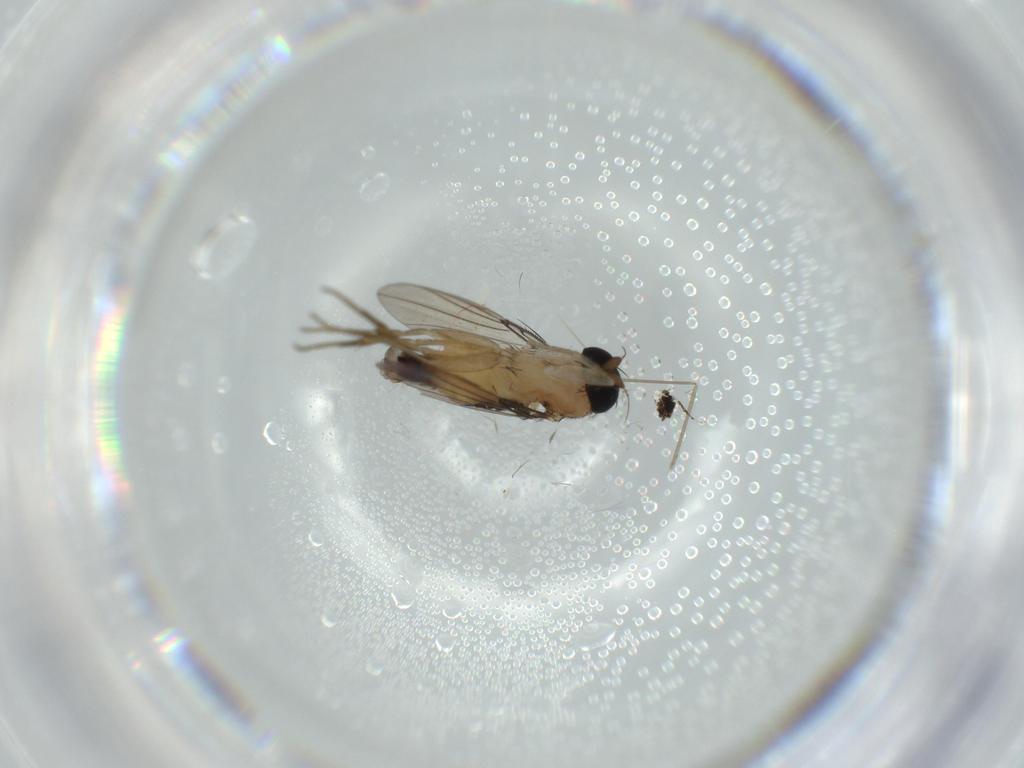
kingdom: Animalia
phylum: Arthropoda
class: Insecta
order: Diptera
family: Phoridae
